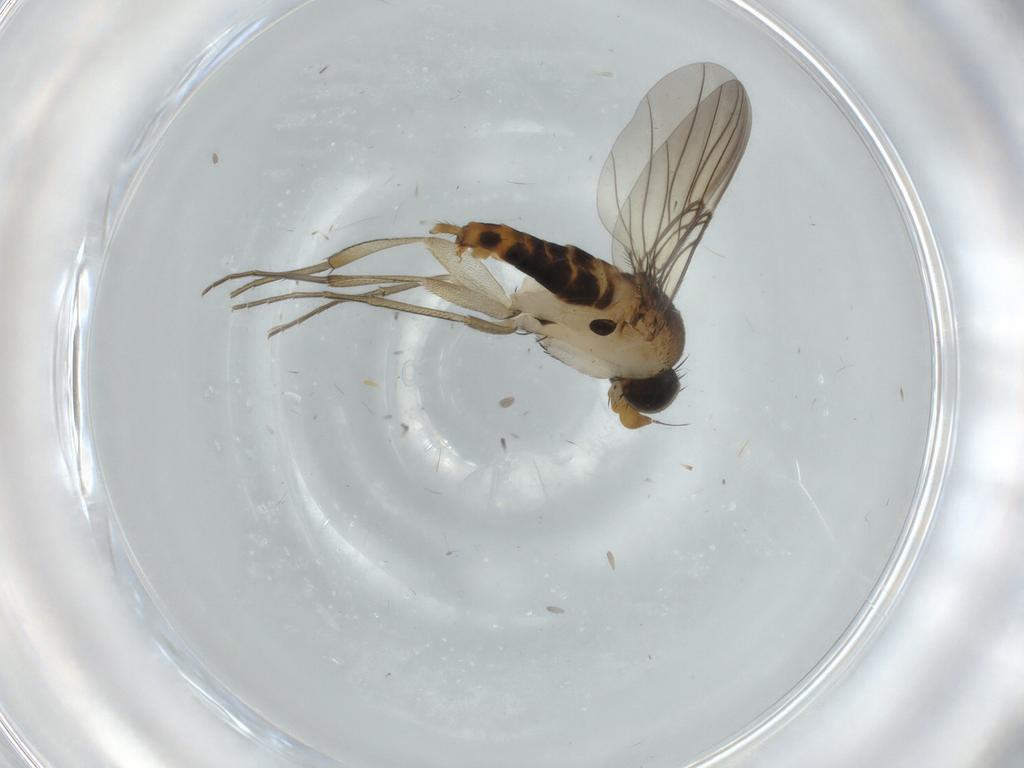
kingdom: Animalia
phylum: Arthropoda
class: Insecta
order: Diptera
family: Phoridae
